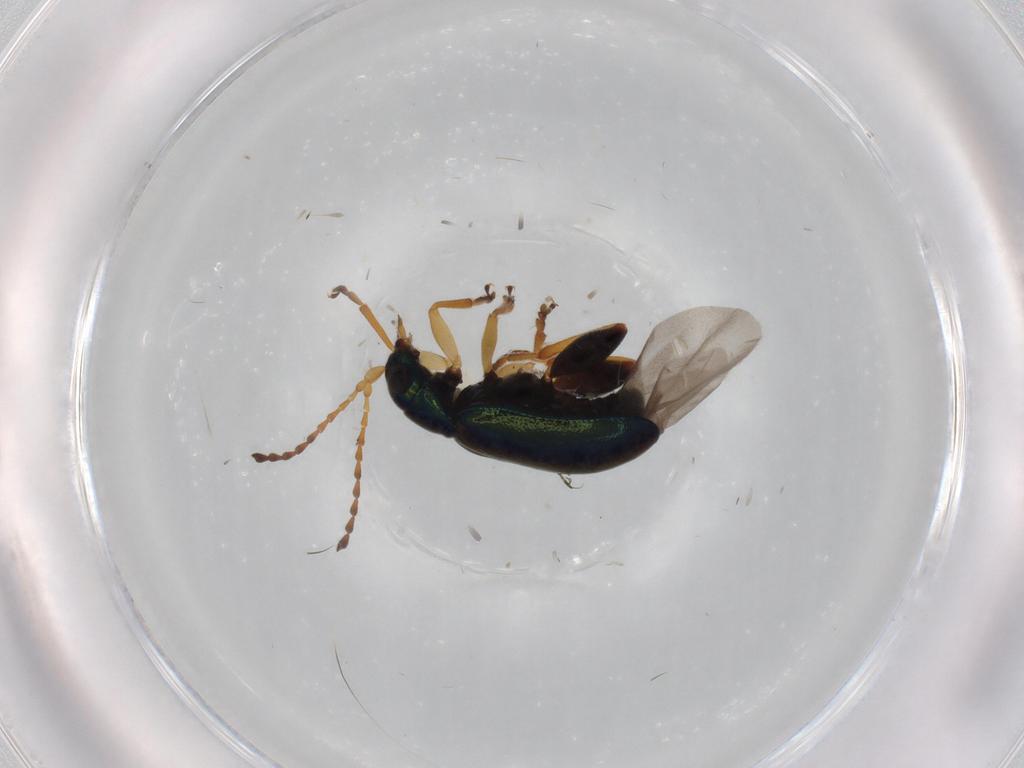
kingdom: Animalia
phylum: Arthropoda
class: Insecta
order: Coleoptera
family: Chrysomelidae
